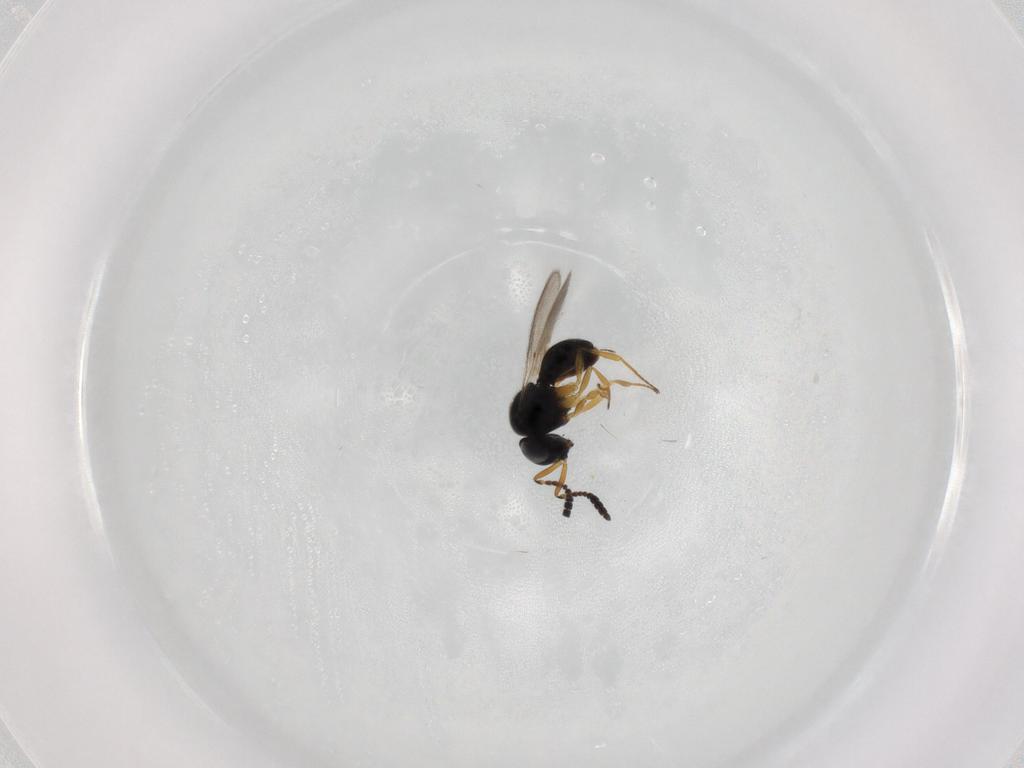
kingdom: Animalia
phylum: Arthropoda
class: Insecta
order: Hymenoptera
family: Scelionidae
